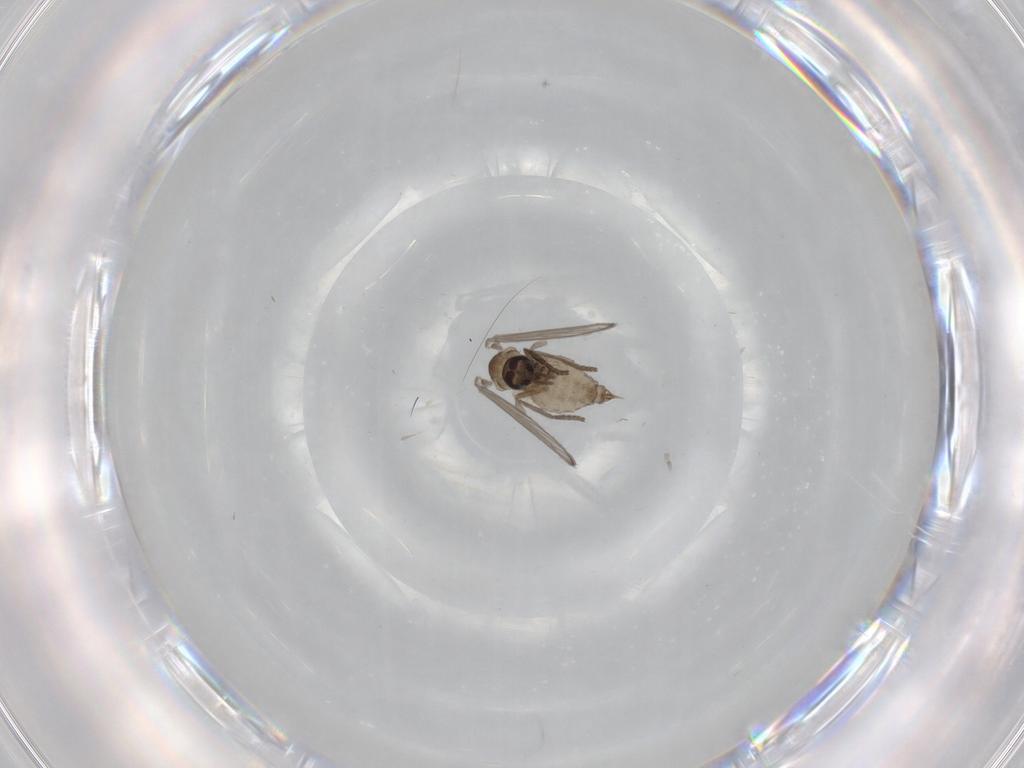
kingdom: Animalia
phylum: Arthropoda
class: Insecta
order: Diptera
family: Psychodidae
